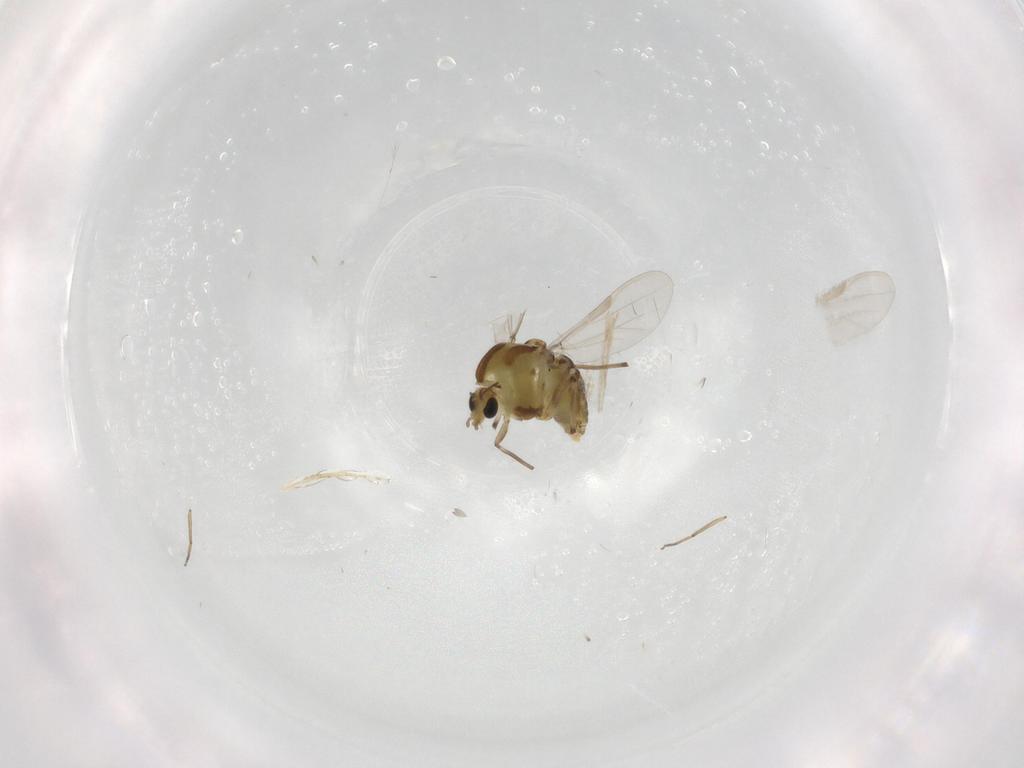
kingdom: Animalia
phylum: Arthropoda
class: Insecta
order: Diptera
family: Chironomidae
